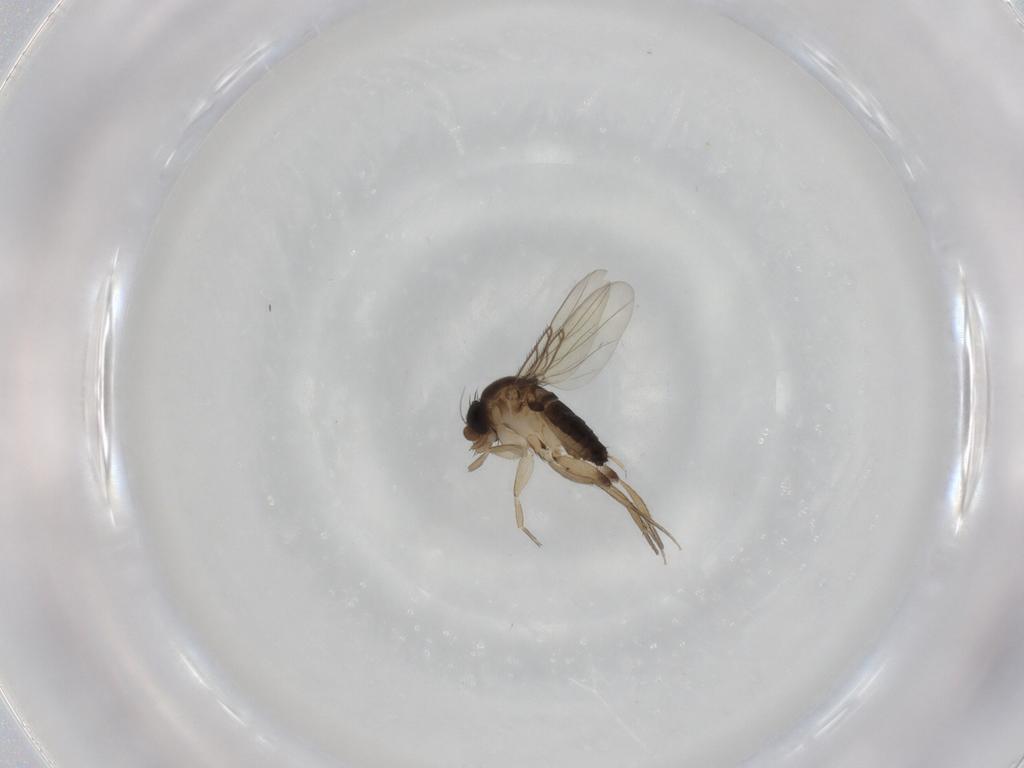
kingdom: Animalia
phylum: Arthropoda
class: Insecta
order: Diptera
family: Phoridae
